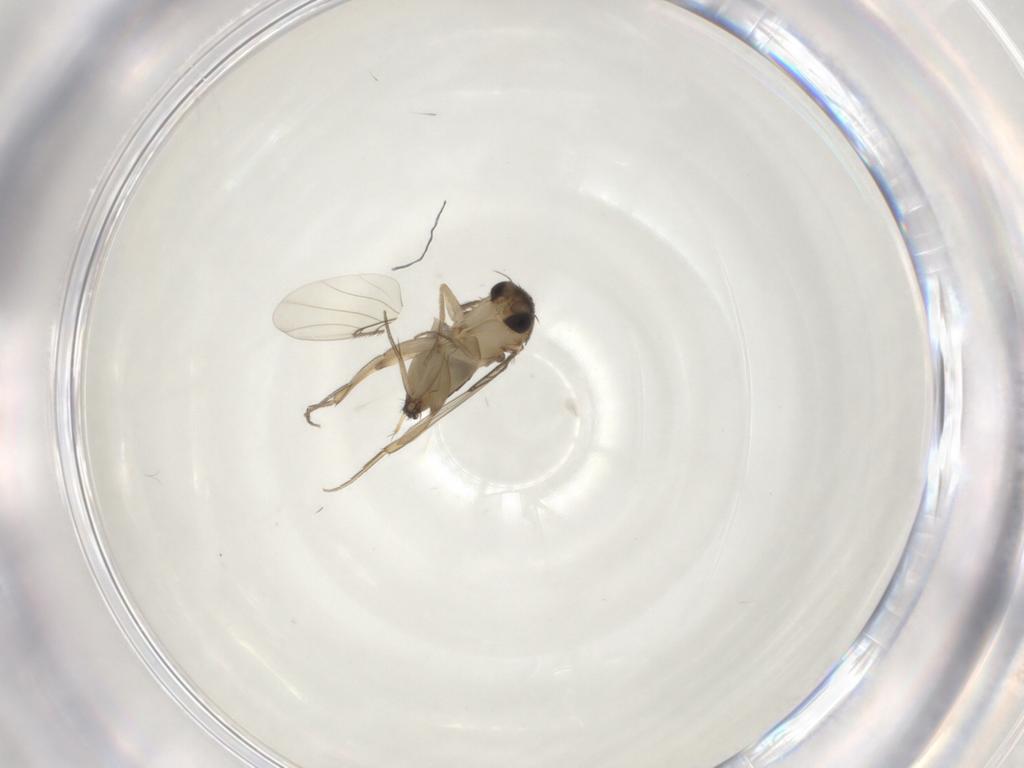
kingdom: Animalia
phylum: Arthropoda
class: Insecta
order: Diptera
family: Phoridae
